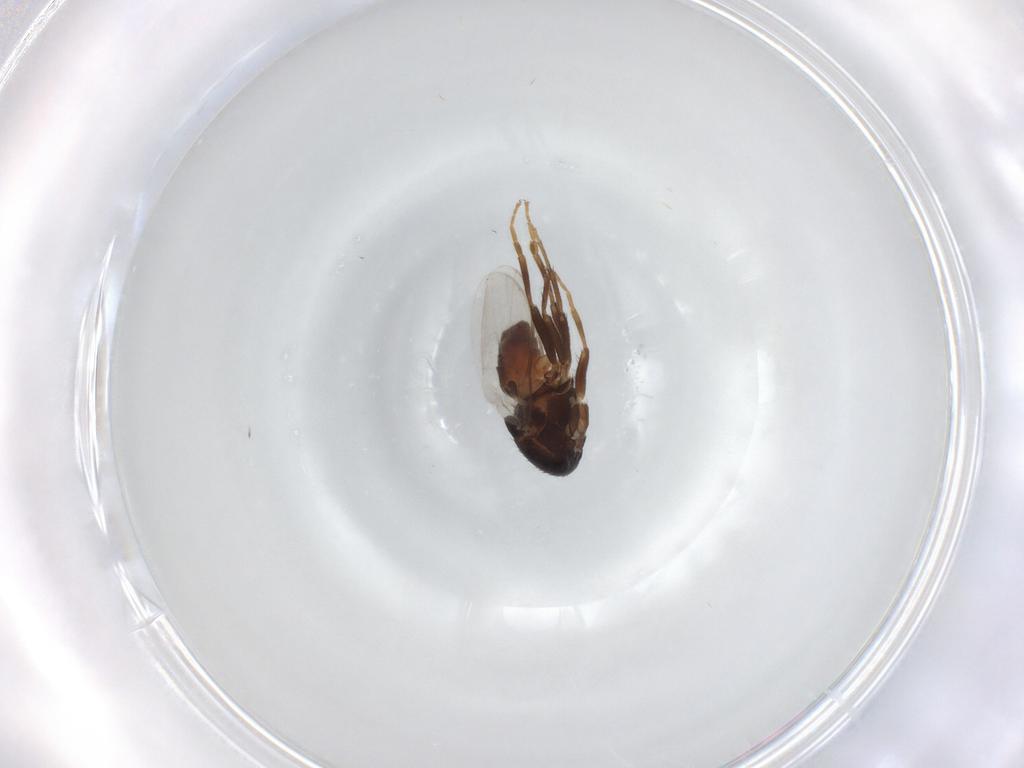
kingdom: Animalia
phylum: Arthropoda
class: Insecta
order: Diptera
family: Sphaeroceridae
